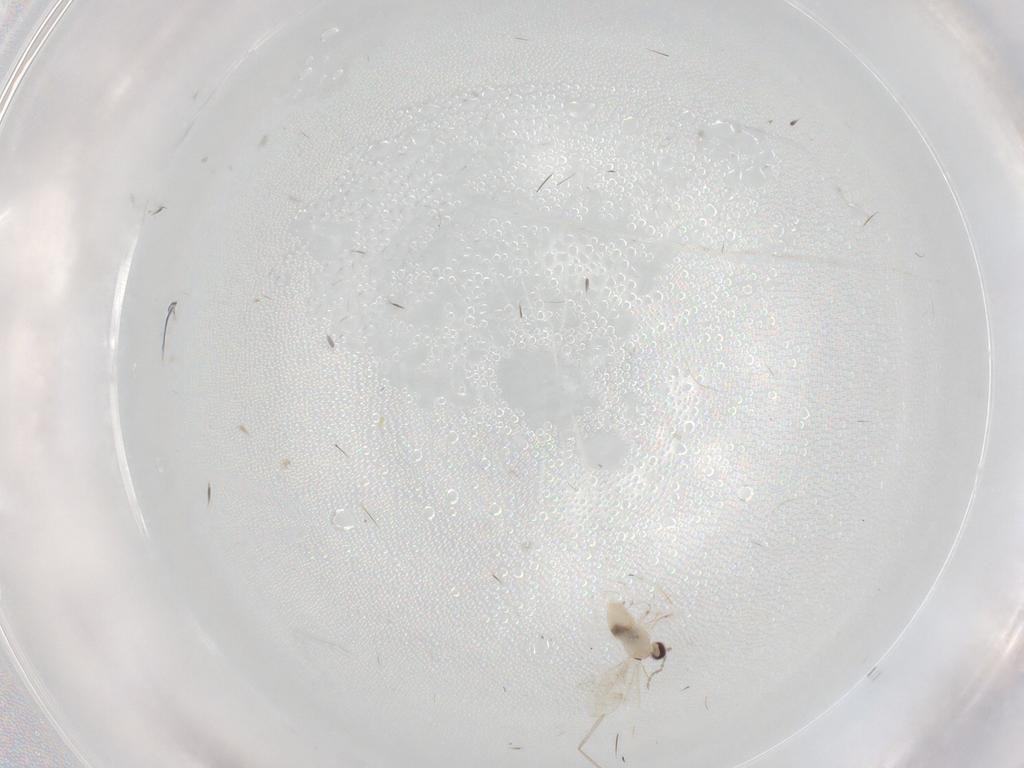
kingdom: Animalia
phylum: Arthropoda
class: Insecta
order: Diptera
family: Cecidomyiidae
